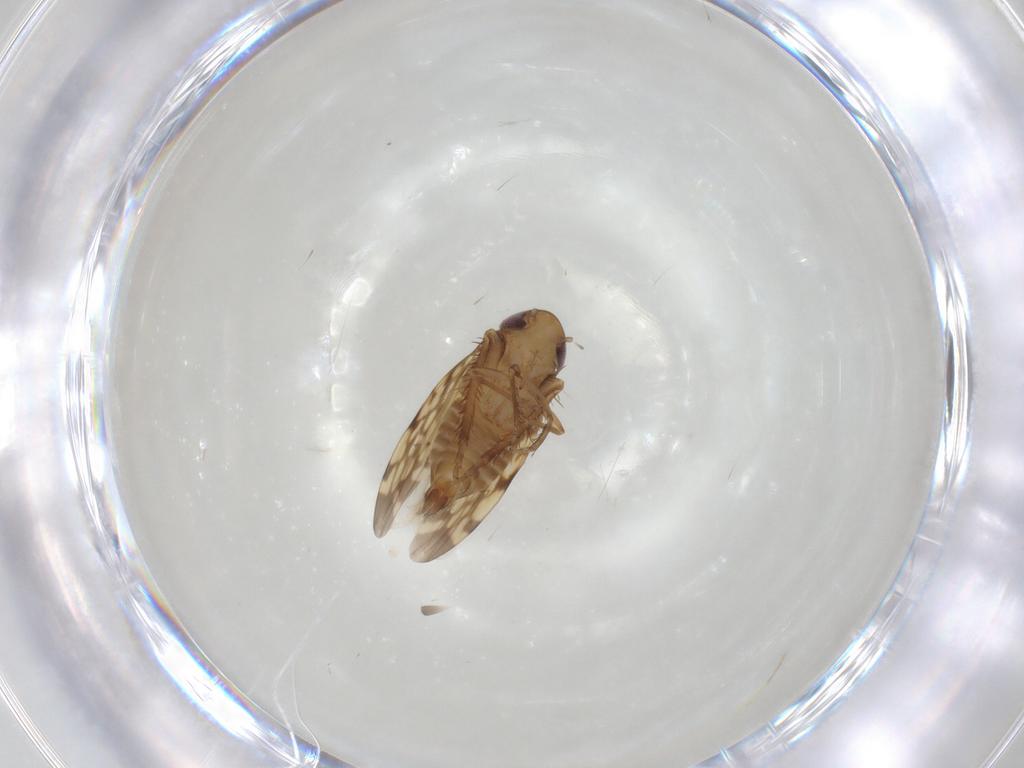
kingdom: Animalia
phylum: Arthropoda
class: Insecta
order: Hemiptera
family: Cicadellidae
